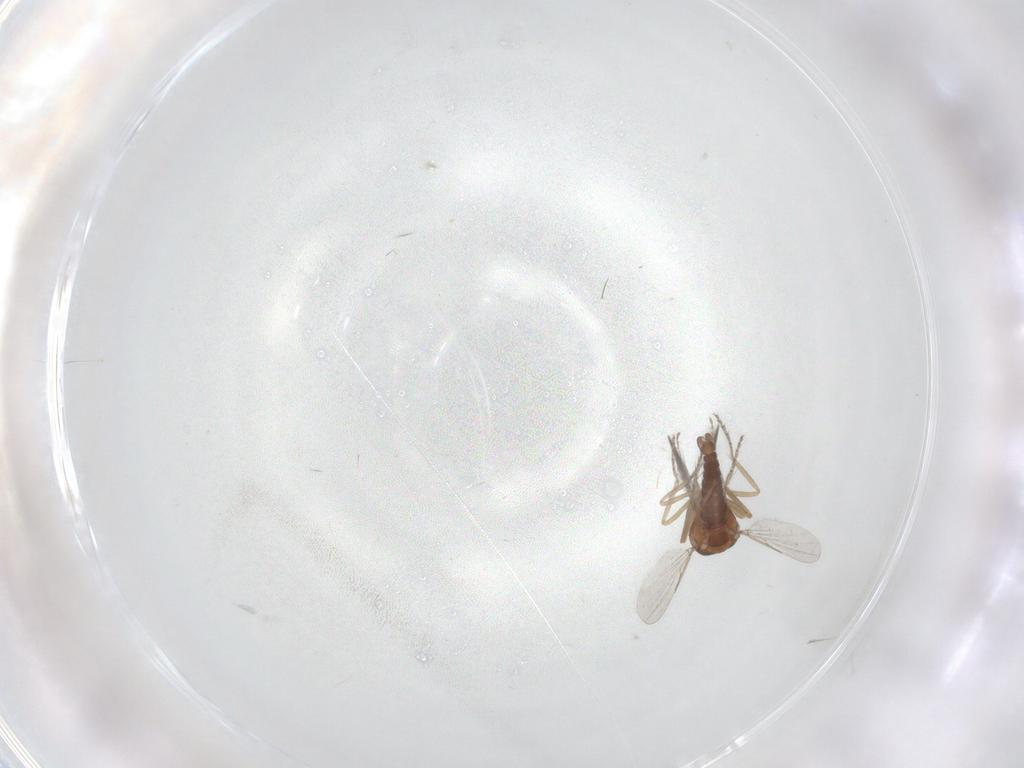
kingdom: Animalia
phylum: Arthropoda
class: Insecta
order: Diptera
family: Ceratopogonidae
